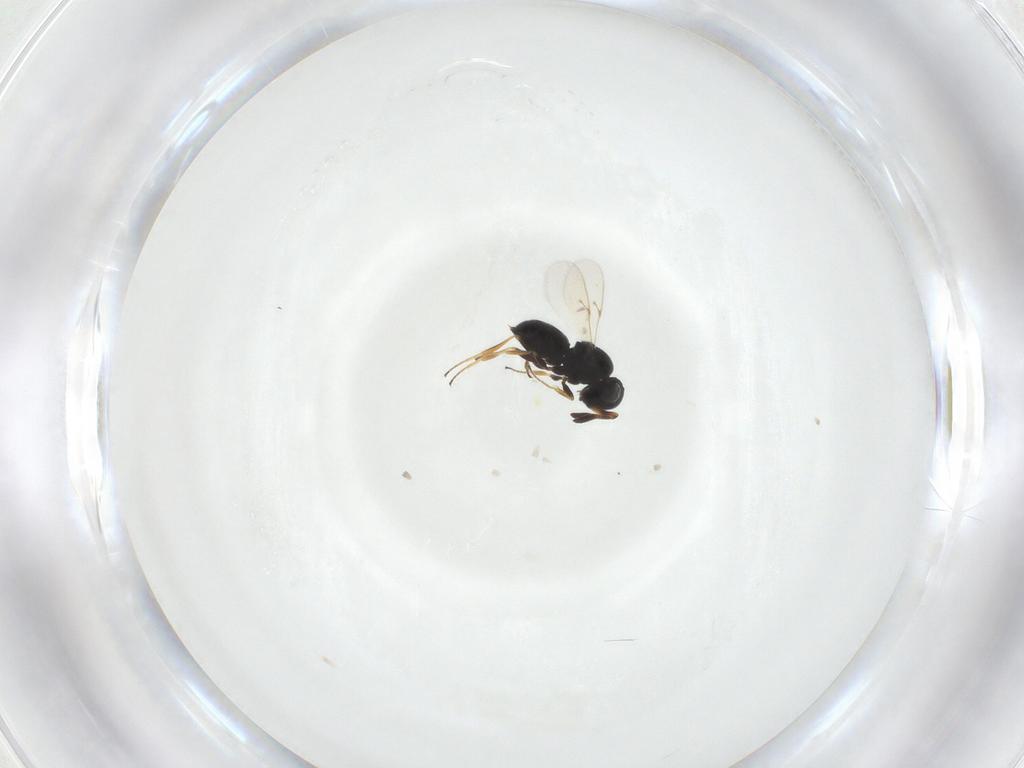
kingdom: Animalia
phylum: Arthropoda
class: Insecta
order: Hymenoptera
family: Scelionidae
